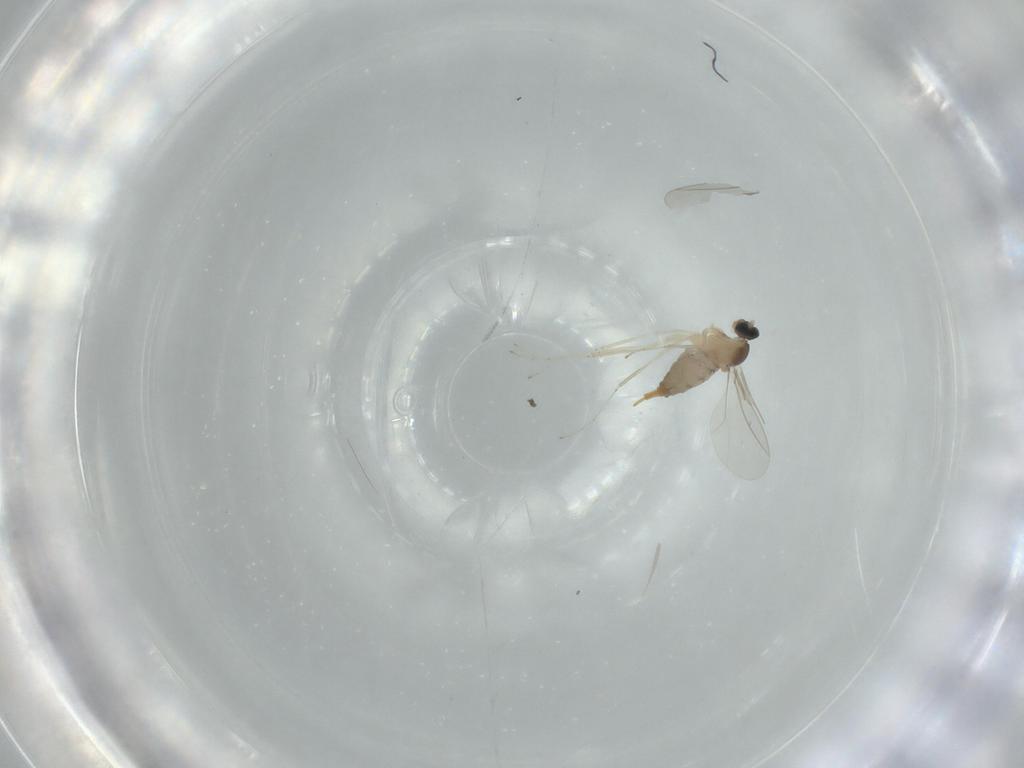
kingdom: Animalia
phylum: Arthropoda
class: Insecta
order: Diptera
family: Cecidomyiidae
